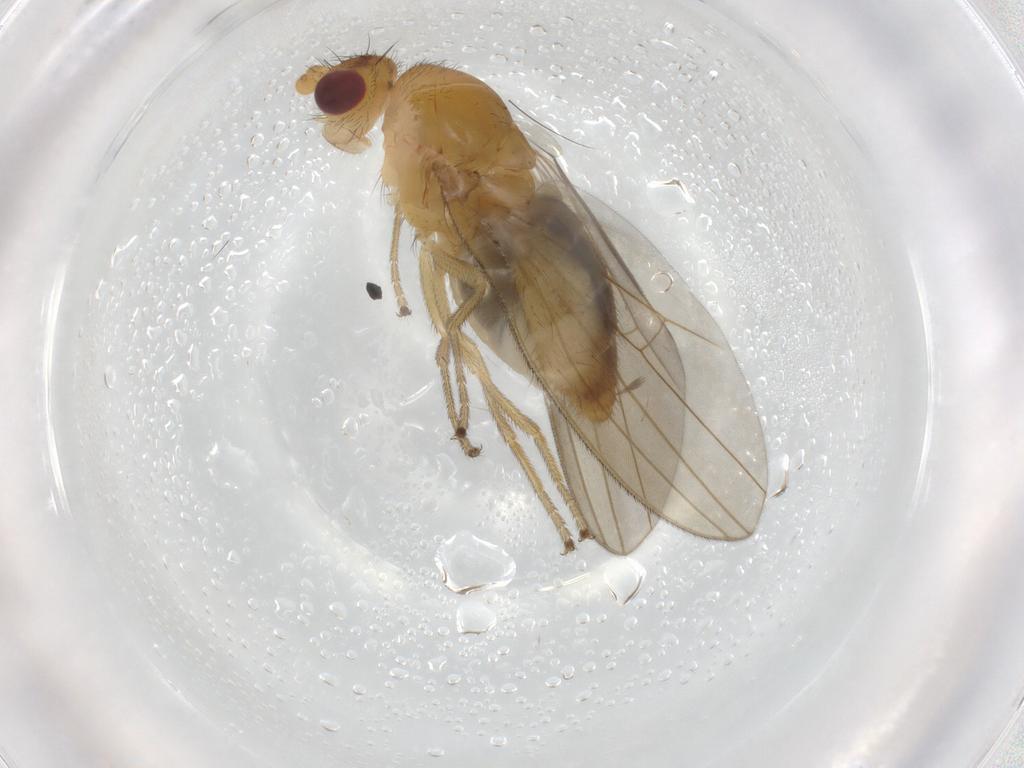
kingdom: Animalia
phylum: Arthropoda
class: Insecta
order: Diptera
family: Natalimyzidae
